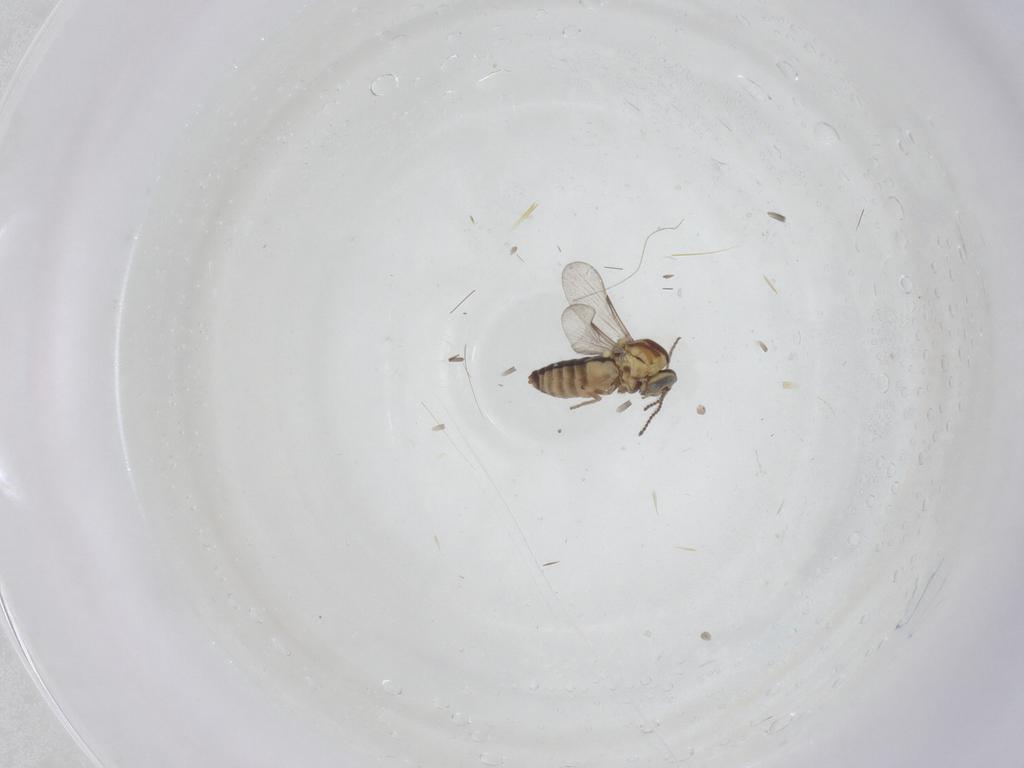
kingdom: Animalia
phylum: Arthropoda
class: Insecta
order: Diptera
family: Ceratopogonidae
